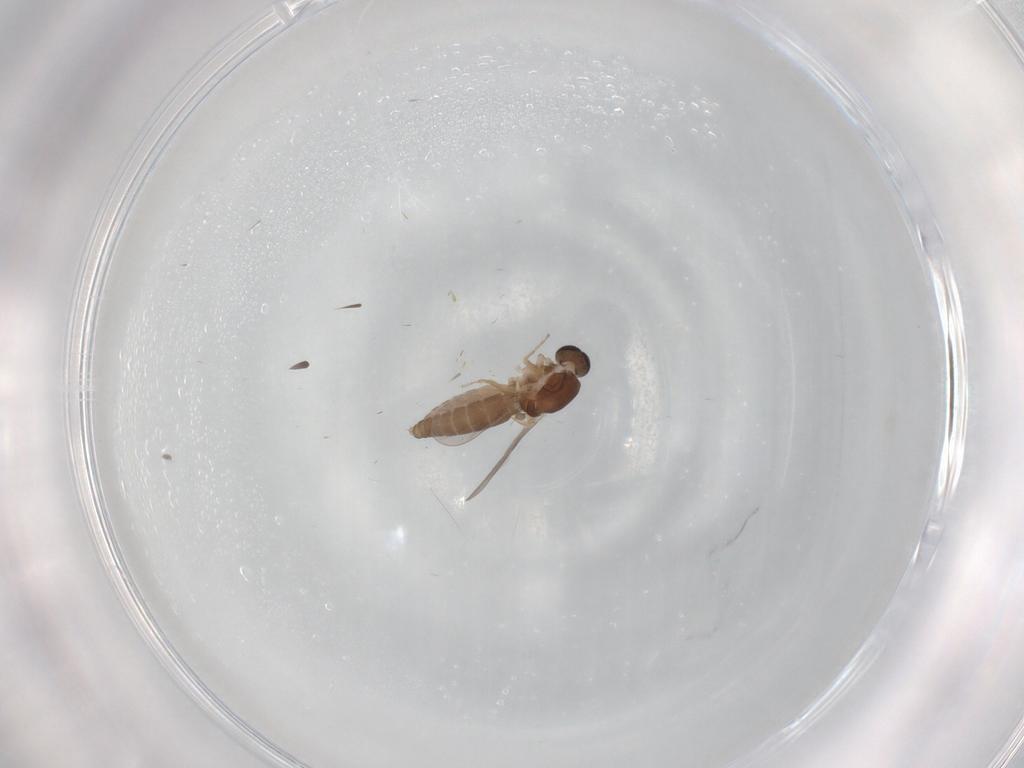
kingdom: Animalia
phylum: Arthropoda
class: Insecta
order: Diptera
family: Ceratopogonidae
